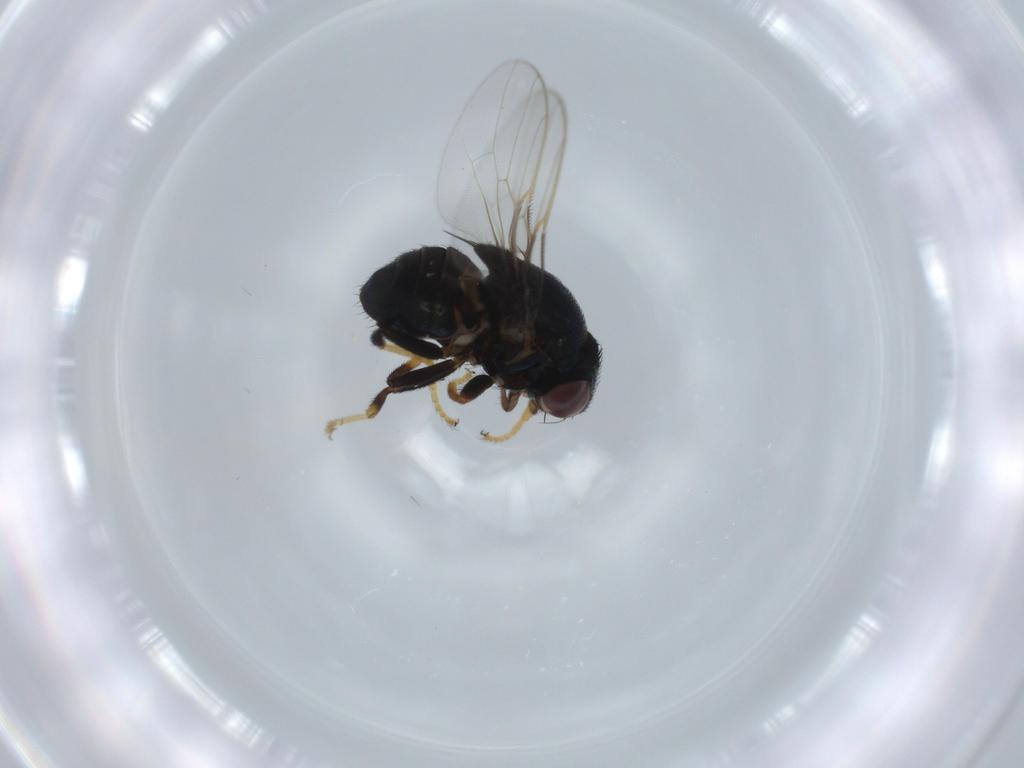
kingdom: Animalia
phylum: Arthropoda
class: Insecta
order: Diptera
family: Chloropidae
